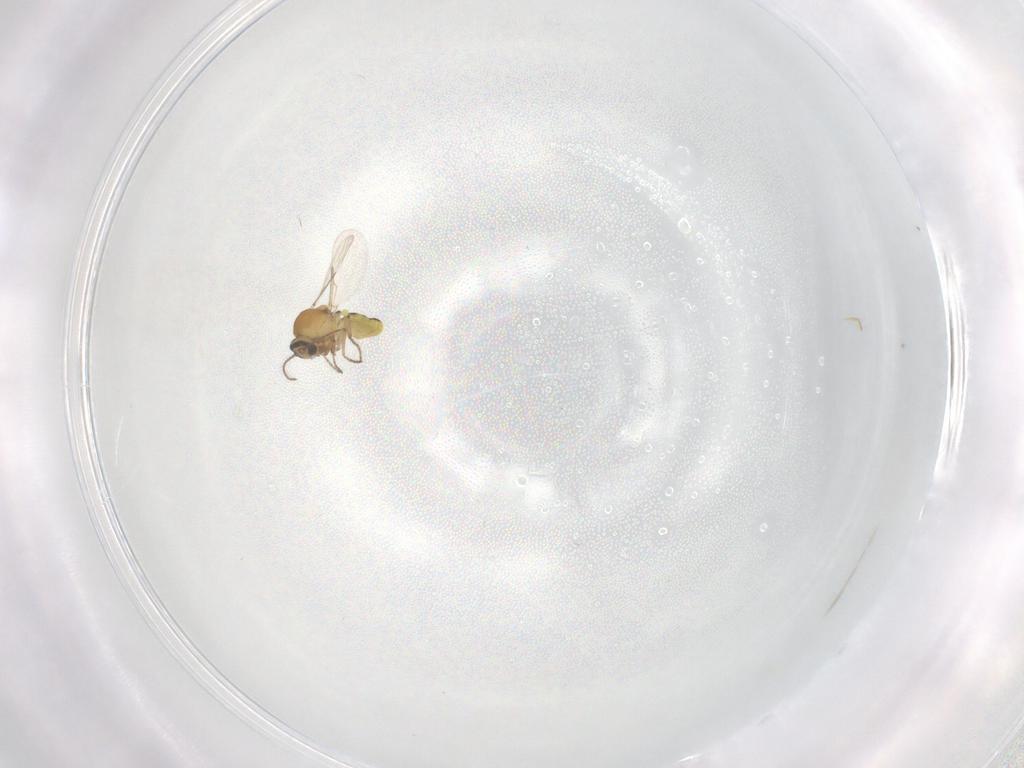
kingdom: Animalia
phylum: Arthropoda
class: Insecta
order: Diptera
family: Ceratopogonidae
